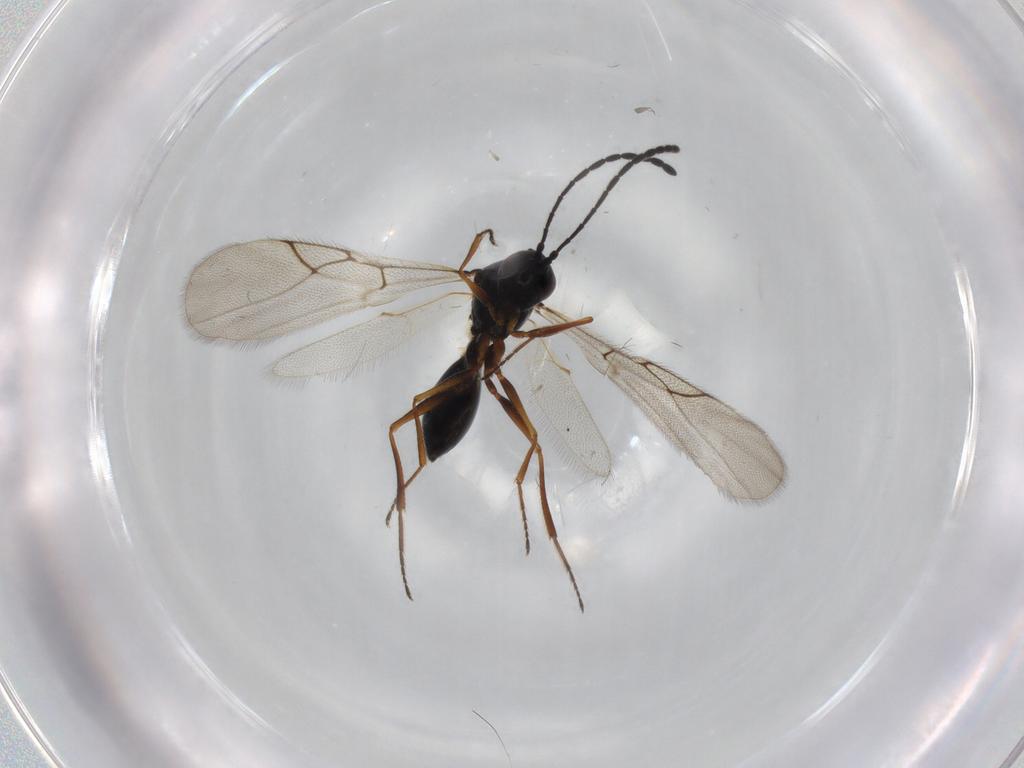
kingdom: Animalia
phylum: Arthropoda
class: Insecta
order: Hymenoptera
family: Figitidae
